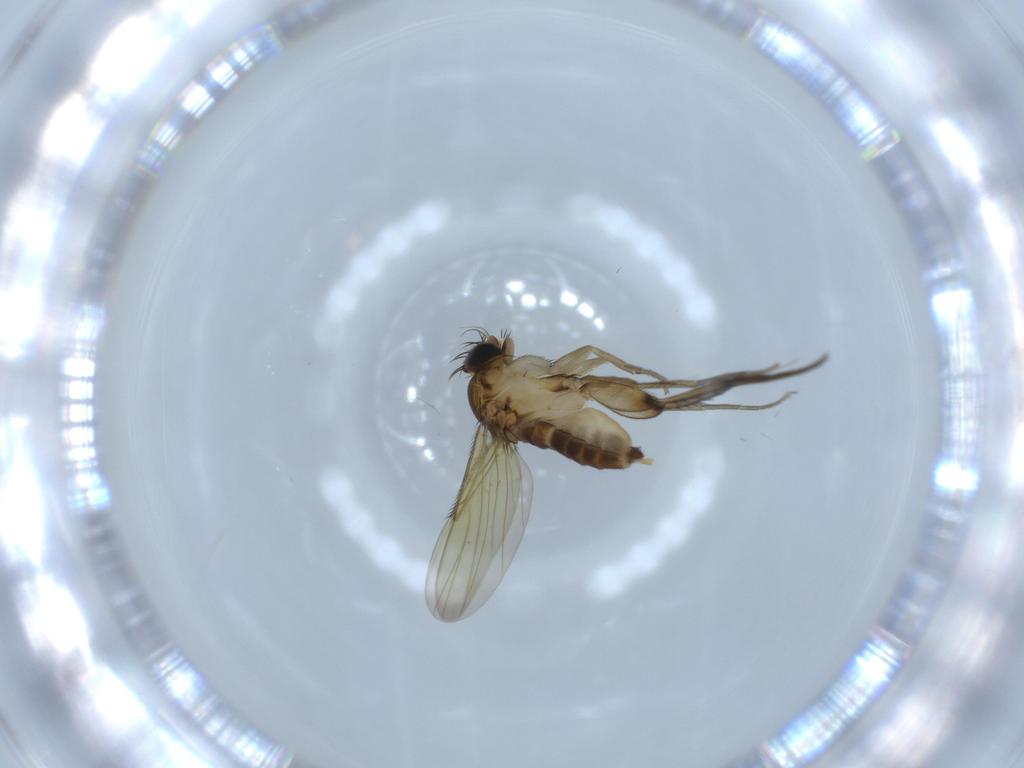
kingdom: Animalia
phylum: Arthropoda
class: Insecta
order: Diptera
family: Phoridae
